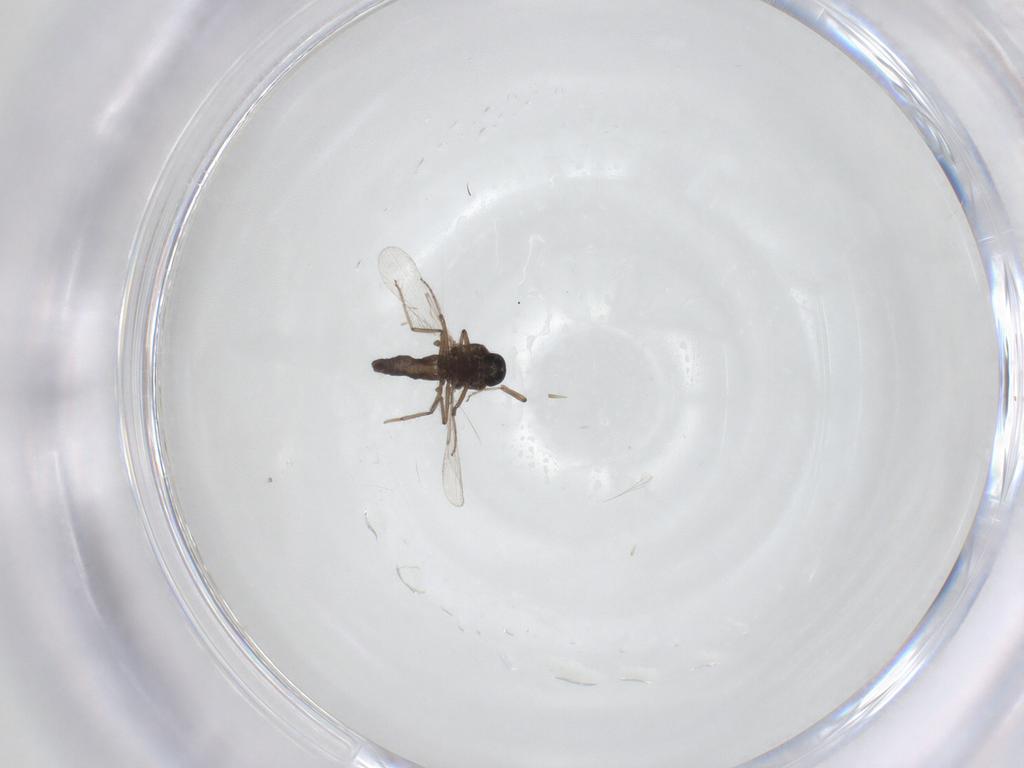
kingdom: Animalia
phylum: Arthropoda
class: Insecta
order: Diptera
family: Ceratopogonidae
